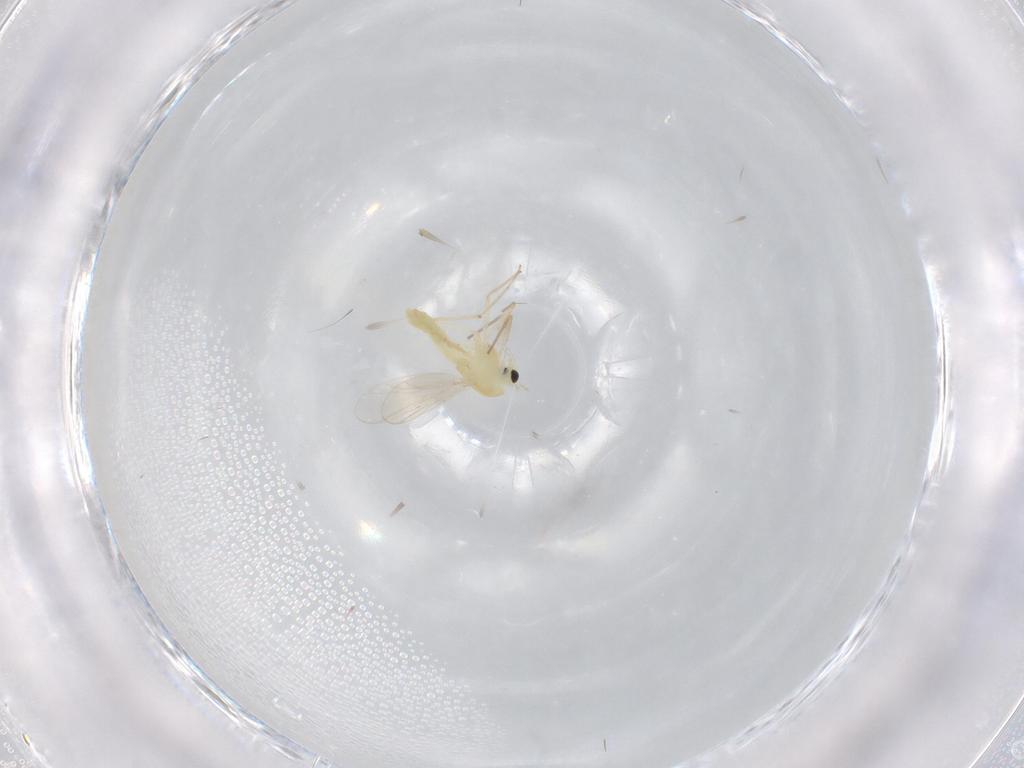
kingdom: Animalia
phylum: Arthropoda
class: Insecta
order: Diptera
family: Chironomidae
